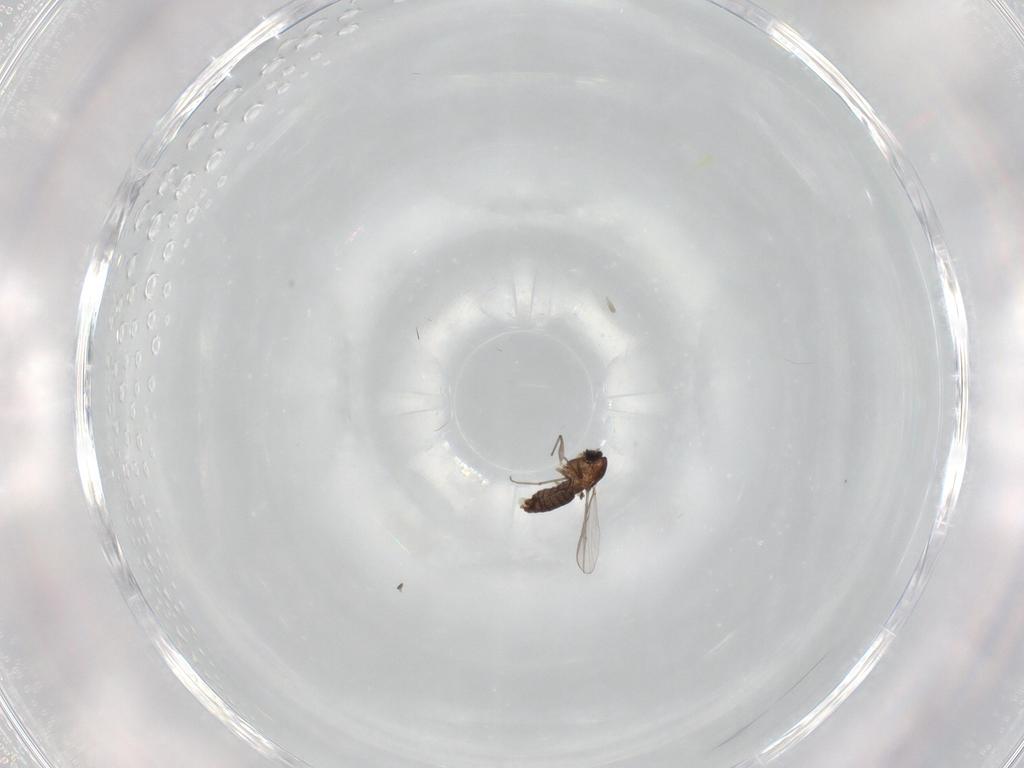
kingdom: Animalia
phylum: Arthropoda
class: Insecta
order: Diptera
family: Chironomidae
